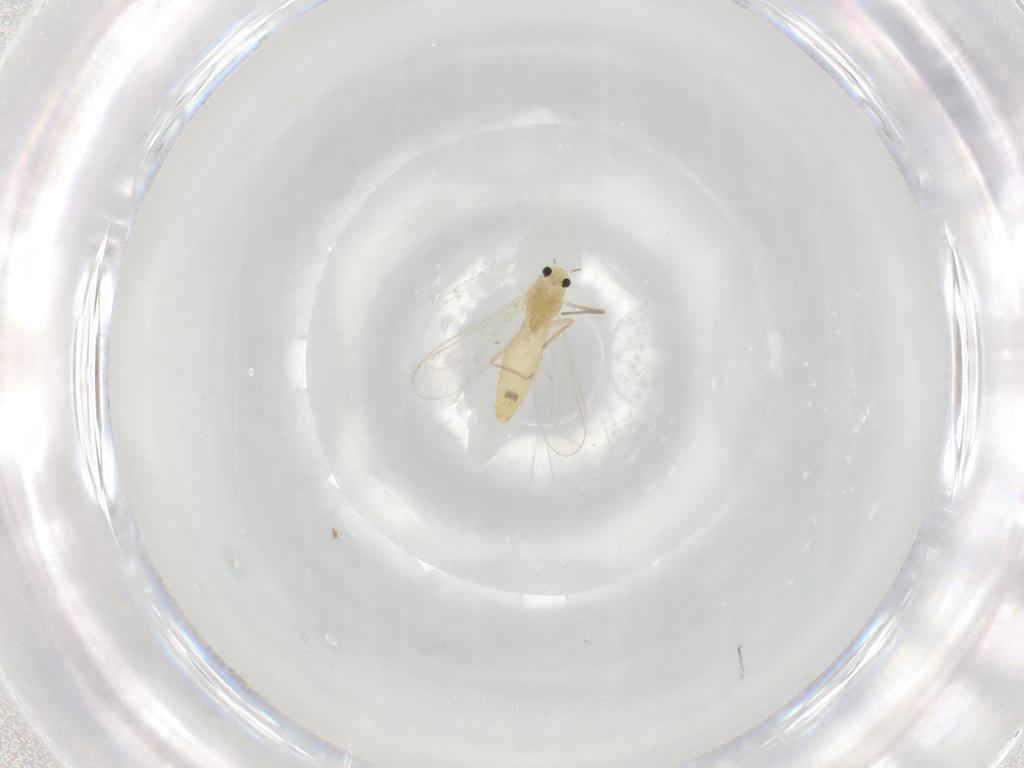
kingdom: Animalia
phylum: Arthropoda
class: Insecta
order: Diptera
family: Chironomidae
